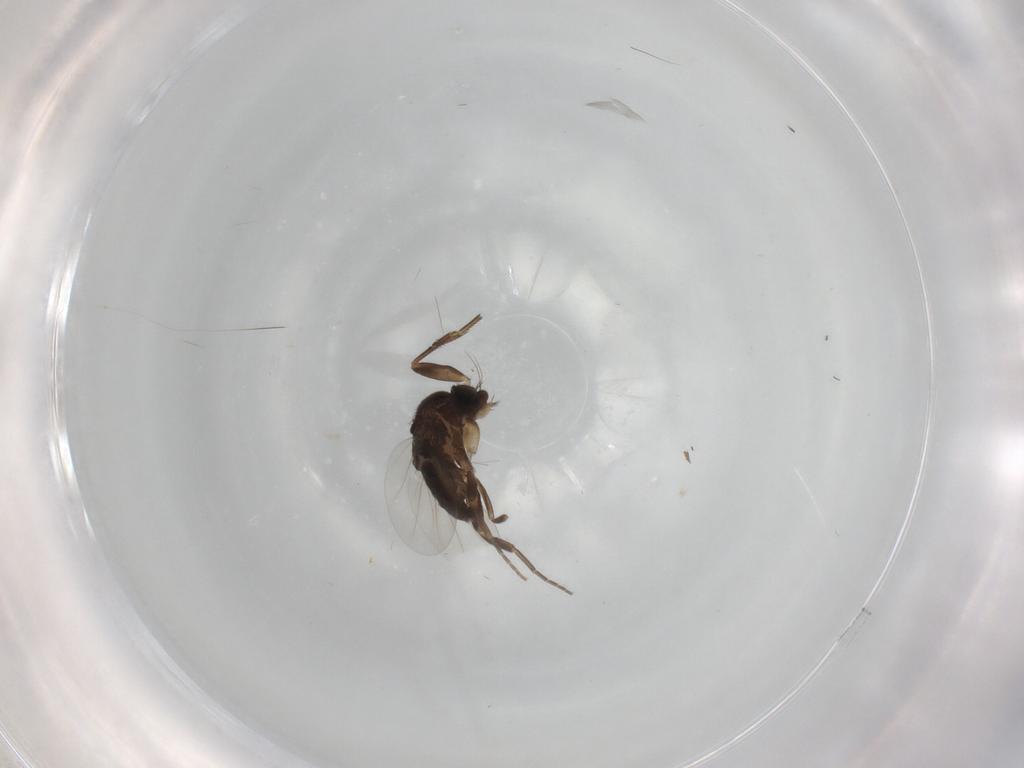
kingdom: Animalia
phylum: Arthropoda
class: Insecta
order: Diptera
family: Phoridae
